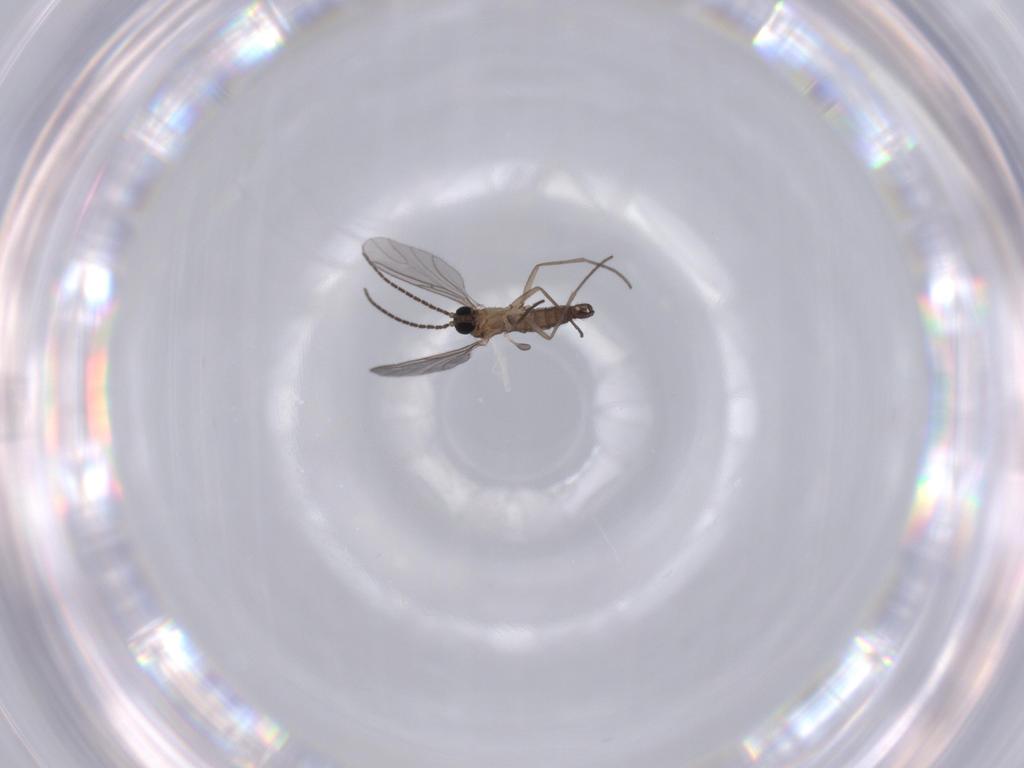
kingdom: Animalia
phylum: Arthropoda
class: Insecta
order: Diptera
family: Sciaridae
